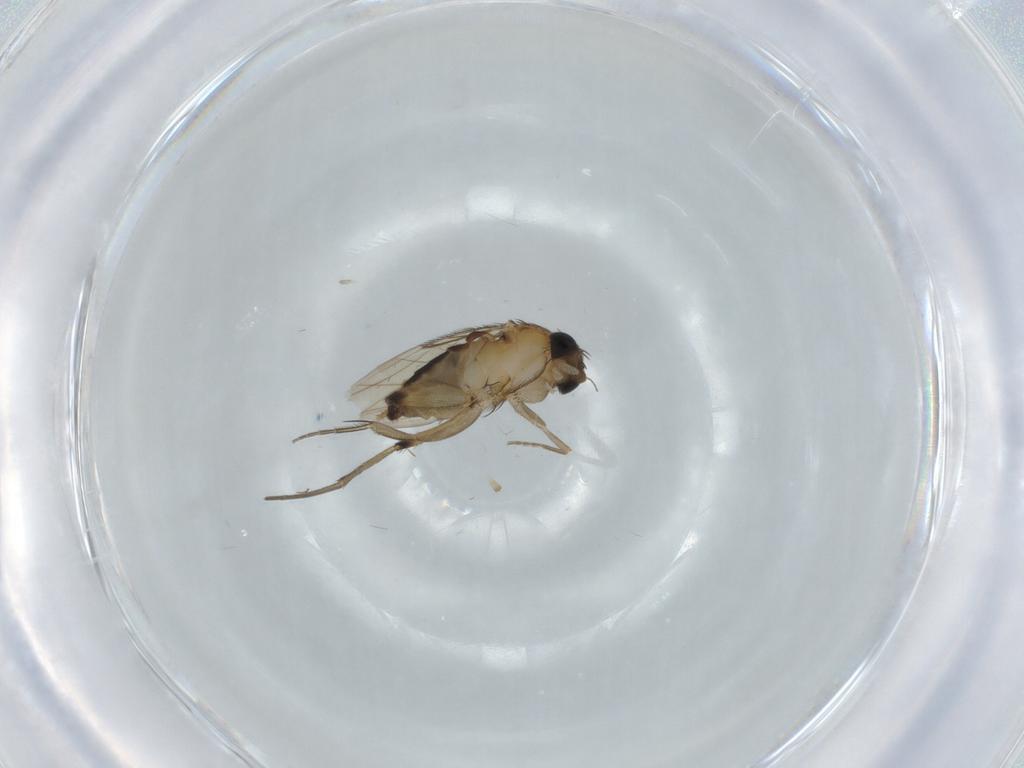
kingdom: Animalia
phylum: Arthropoda
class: Insecta
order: Diptera
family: Phoridae
